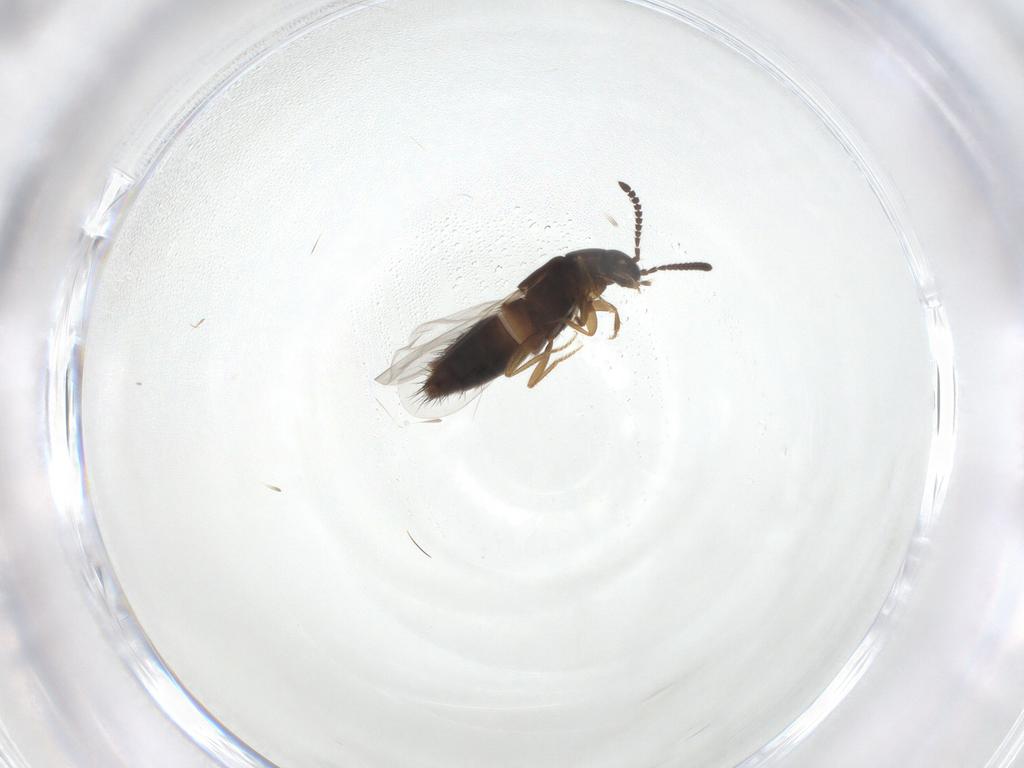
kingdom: Animalia
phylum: Arthropoda
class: Insecta
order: Coleoptera
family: Staphylinidae
